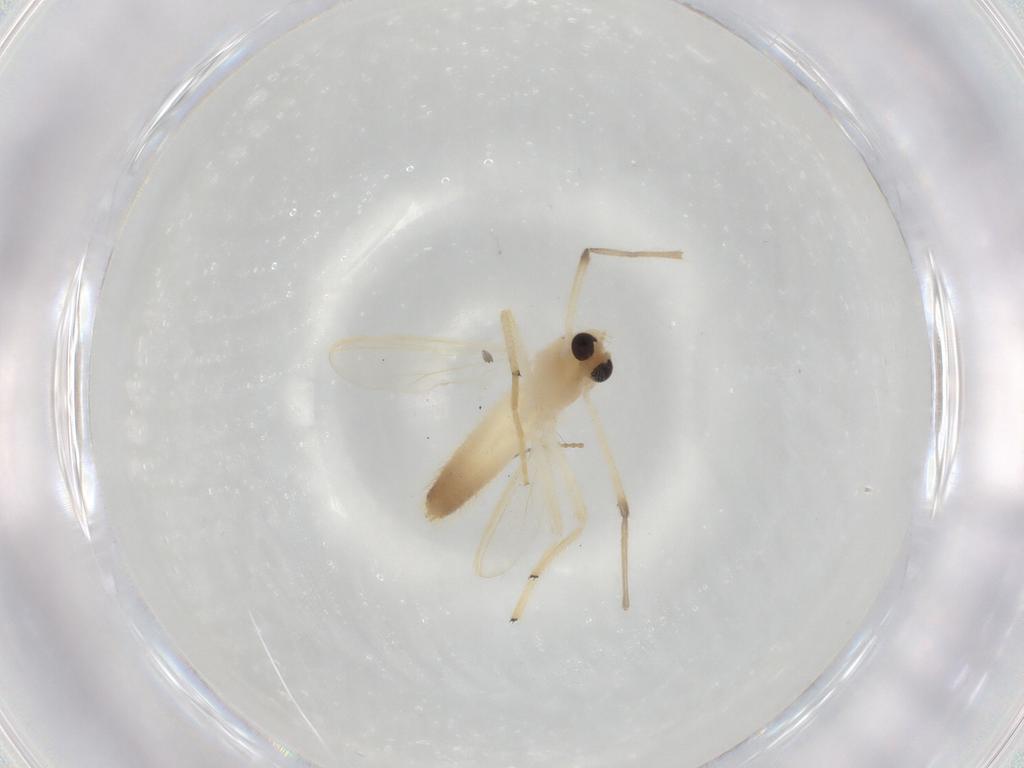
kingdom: Animalia
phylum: Arthropoda
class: Insecta
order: Diptera
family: Chironomidae
